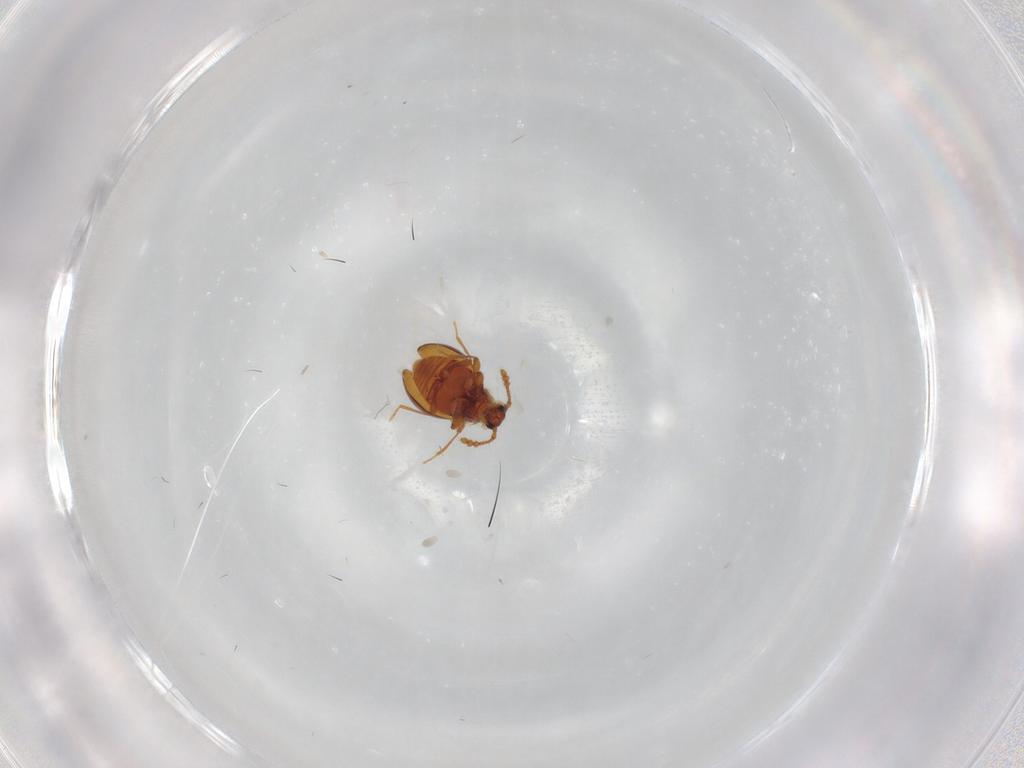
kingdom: Animalia
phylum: Arthropoda
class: Insecta
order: Coleoptera
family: Staphylinidae
